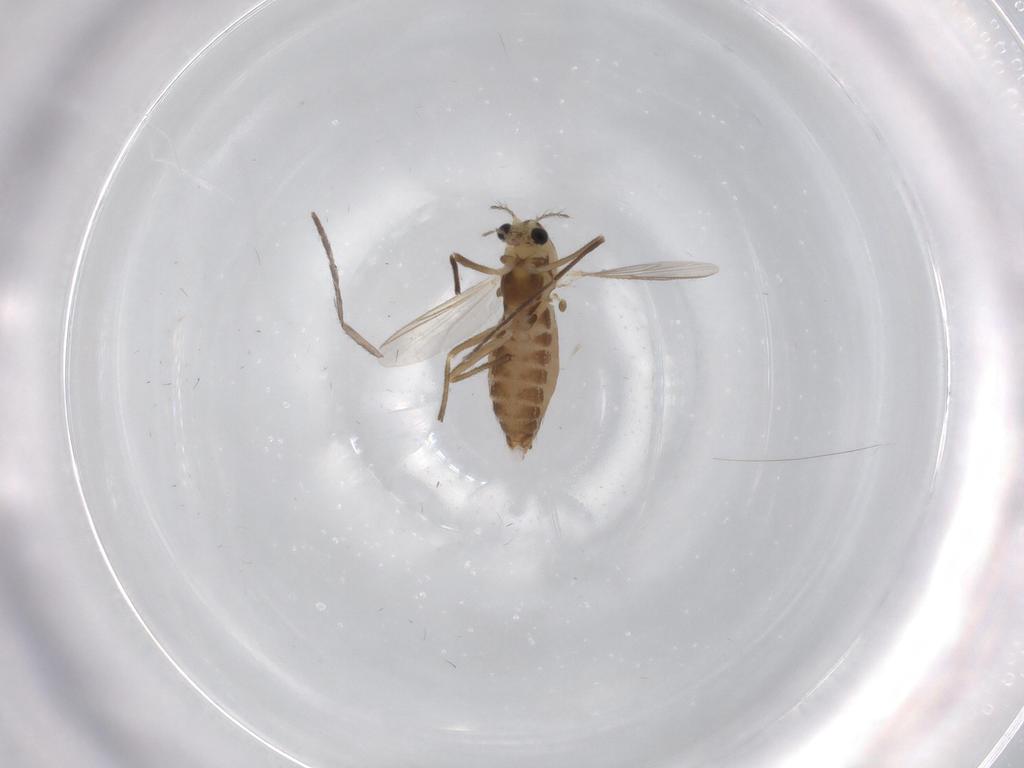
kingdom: Animalia
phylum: Arthropoda
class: Insecta
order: Diptera
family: Chironomidae
